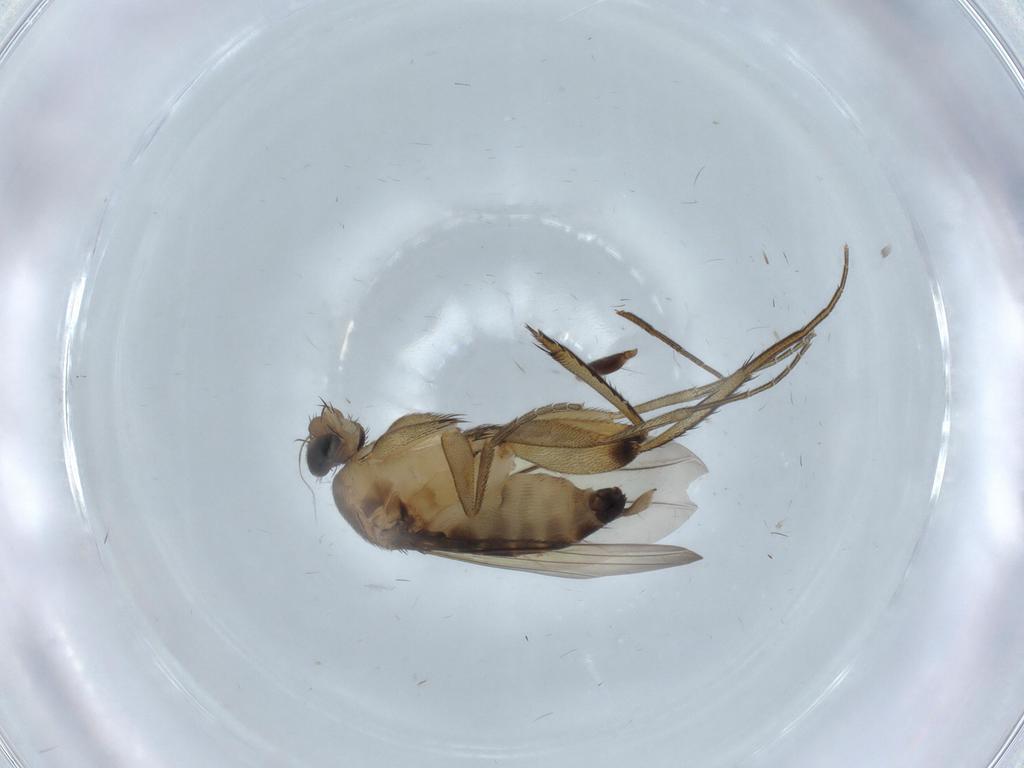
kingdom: Animalia
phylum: Arthropoda
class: Insecta
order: Diptera
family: Phoridae
